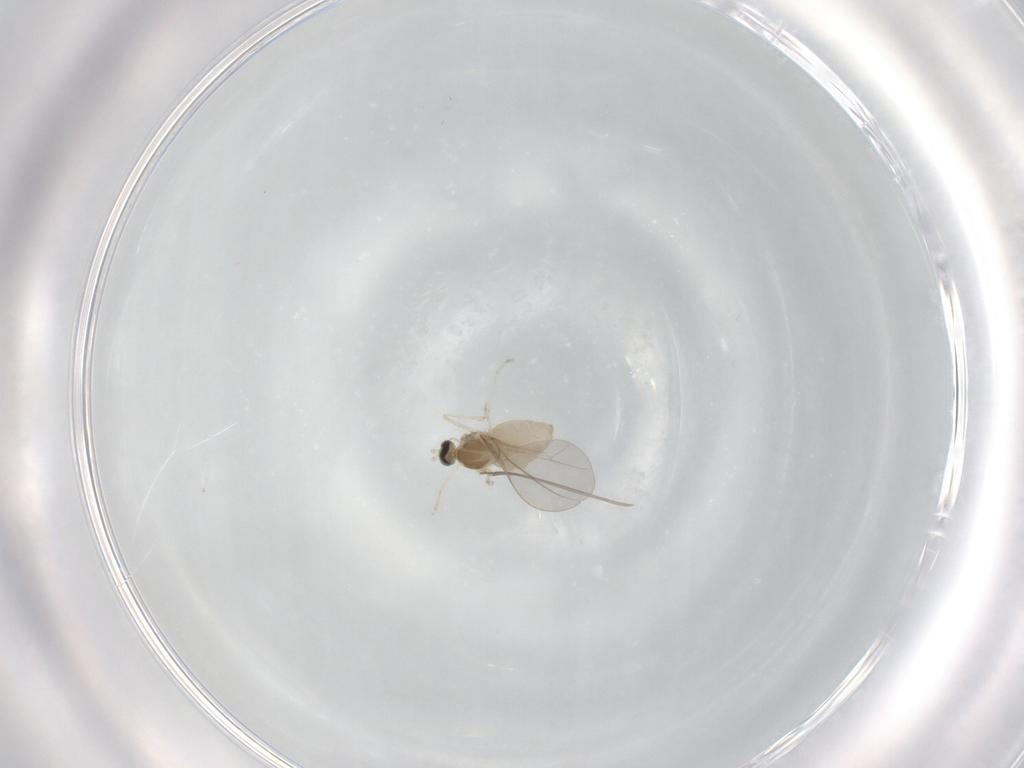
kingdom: Animalia
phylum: Arthropoda
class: Insecta
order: Diptera
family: Cecidomyiidae
